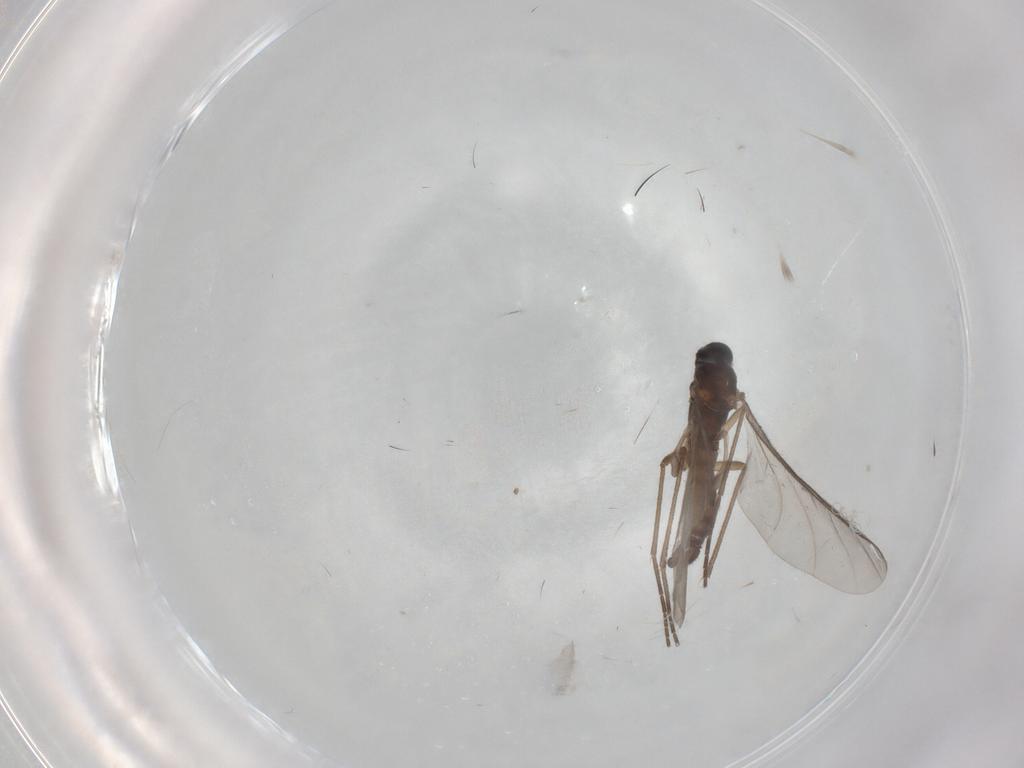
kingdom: Animalia
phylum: Arthropoda
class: Insecta
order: Diptera
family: Sciaridae
